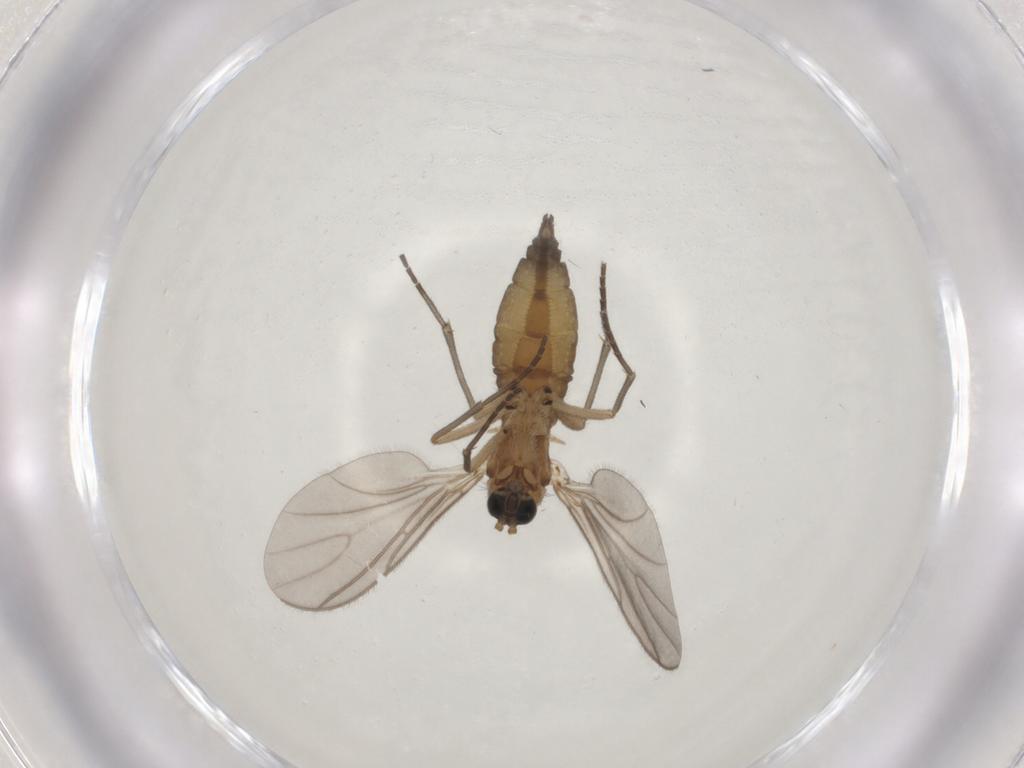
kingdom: Animalia
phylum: Arthropoda
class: Insecta
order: Diptera
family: Sciaridae
